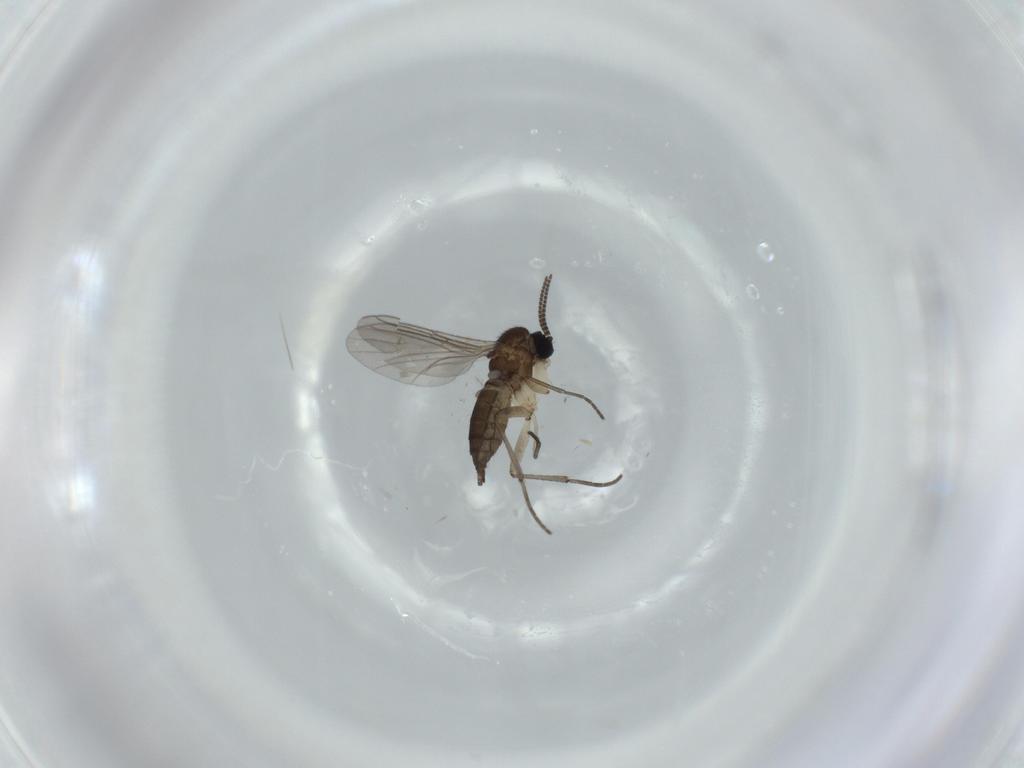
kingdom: Animalia
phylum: Arthropoda
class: Insecta
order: Diptera
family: Sciaridae
